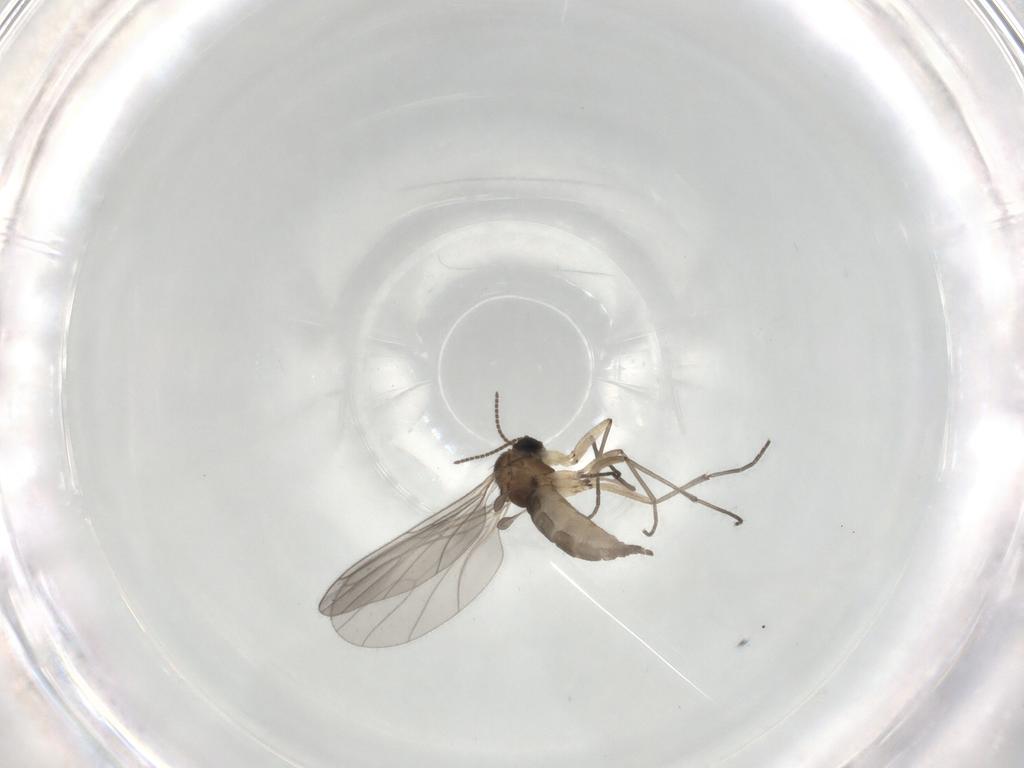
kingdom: Animalia
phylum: Arthropoda
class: Insecta
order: Diptera
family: Sciaridae
